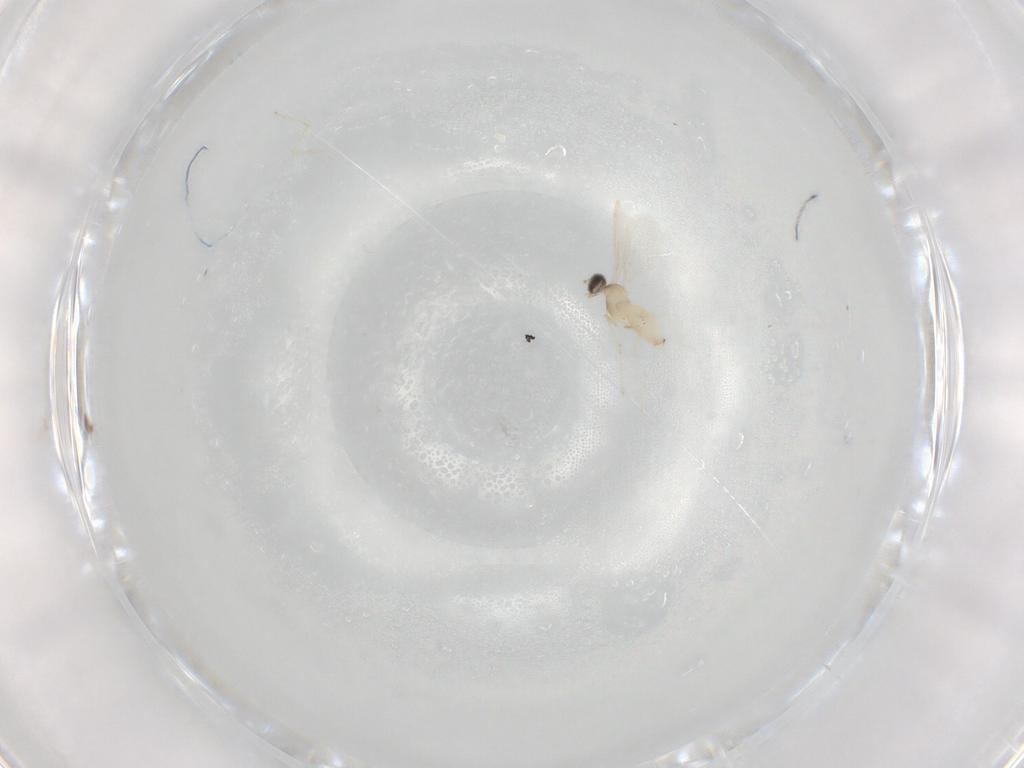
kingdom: Animalia
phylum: Arthropoda
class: Insecta
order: Diptera
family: Cecidomyiidae
